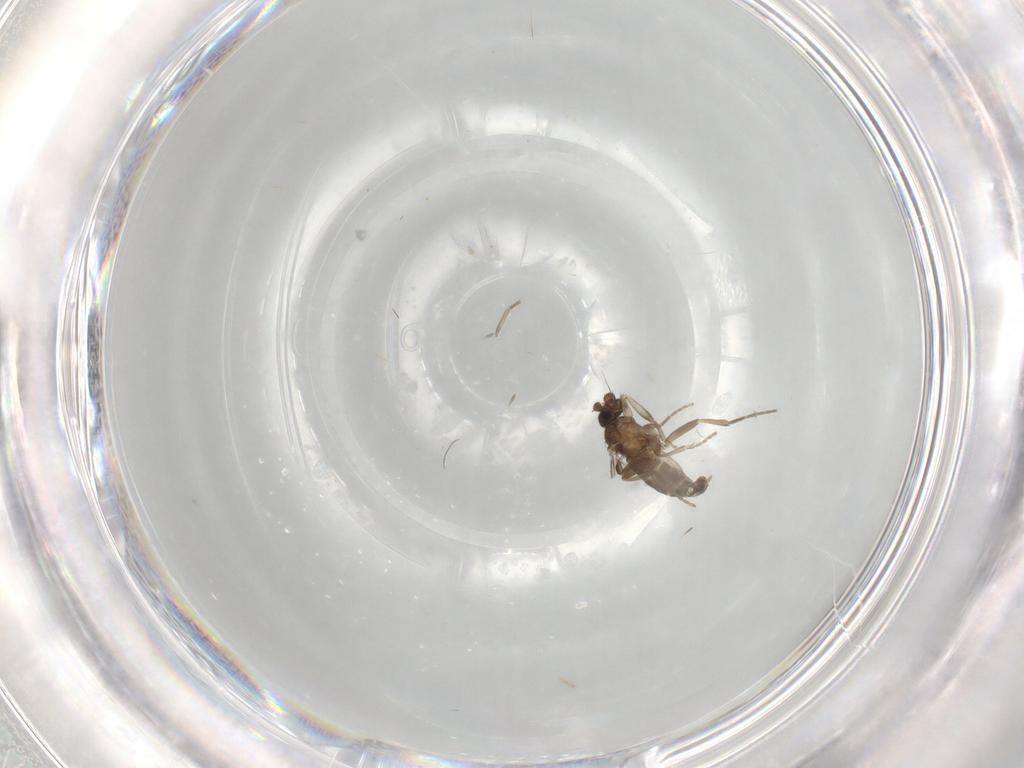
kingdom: Animalia
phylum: Arthropoda
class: Insecta
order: Diptera
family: Phoridae
